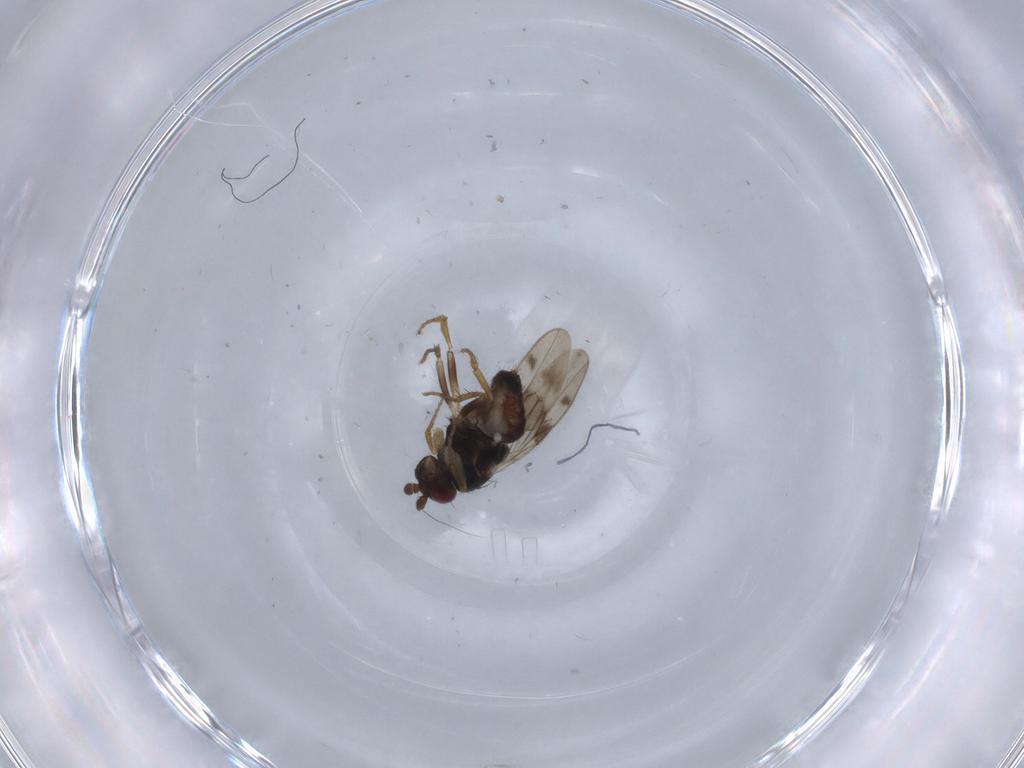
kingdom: Animalia
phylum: Arthropoda
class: Insecta
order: Diptera
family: Sphaeroceridae
